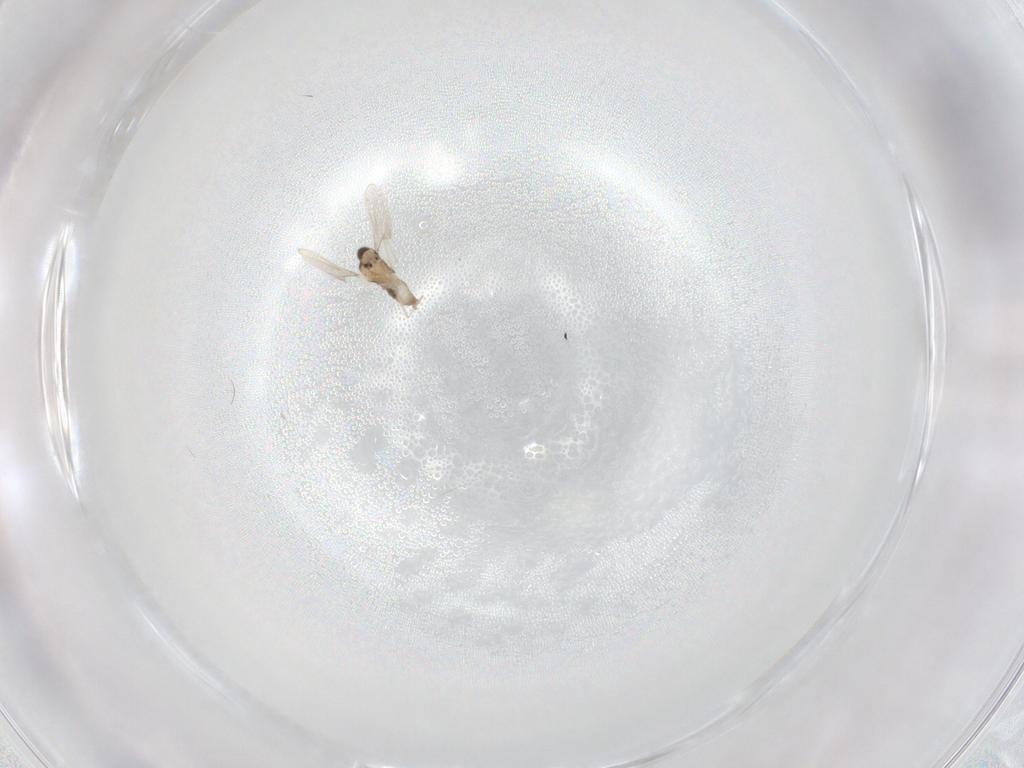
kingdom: Animalia
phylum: Arthropoda
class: Insecta
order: Diptera
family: Cecidomyiidae
